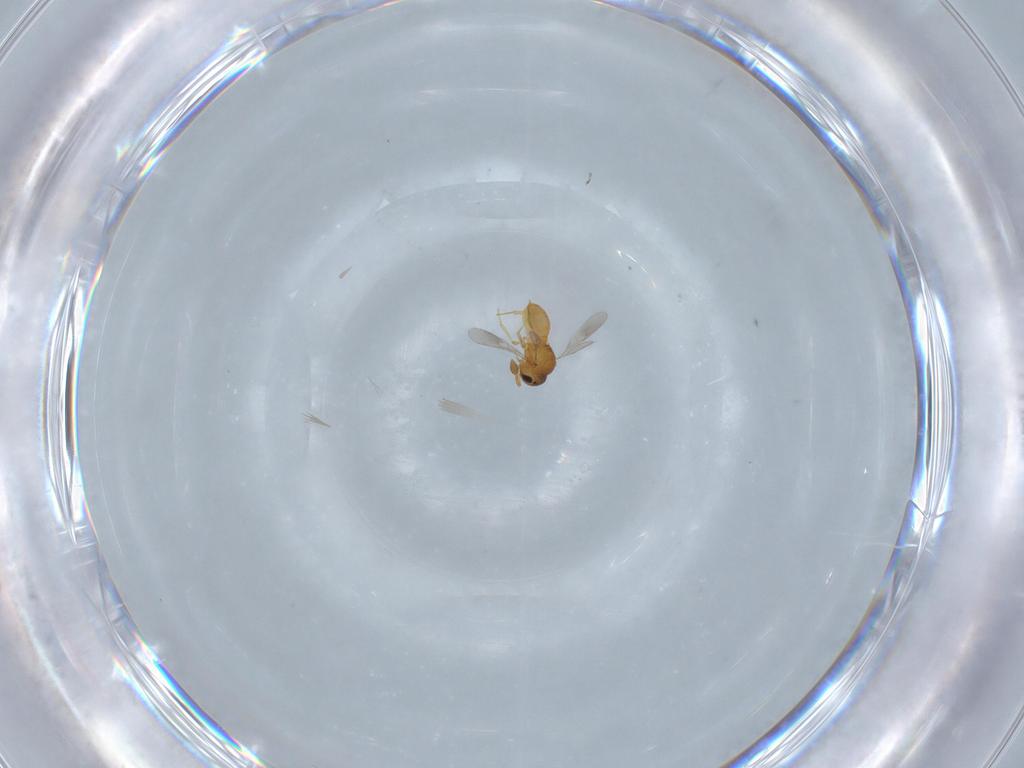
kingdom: Animalia
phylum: Arthropoda
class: Insecta
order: Hymenoptera
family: Scelionidae
